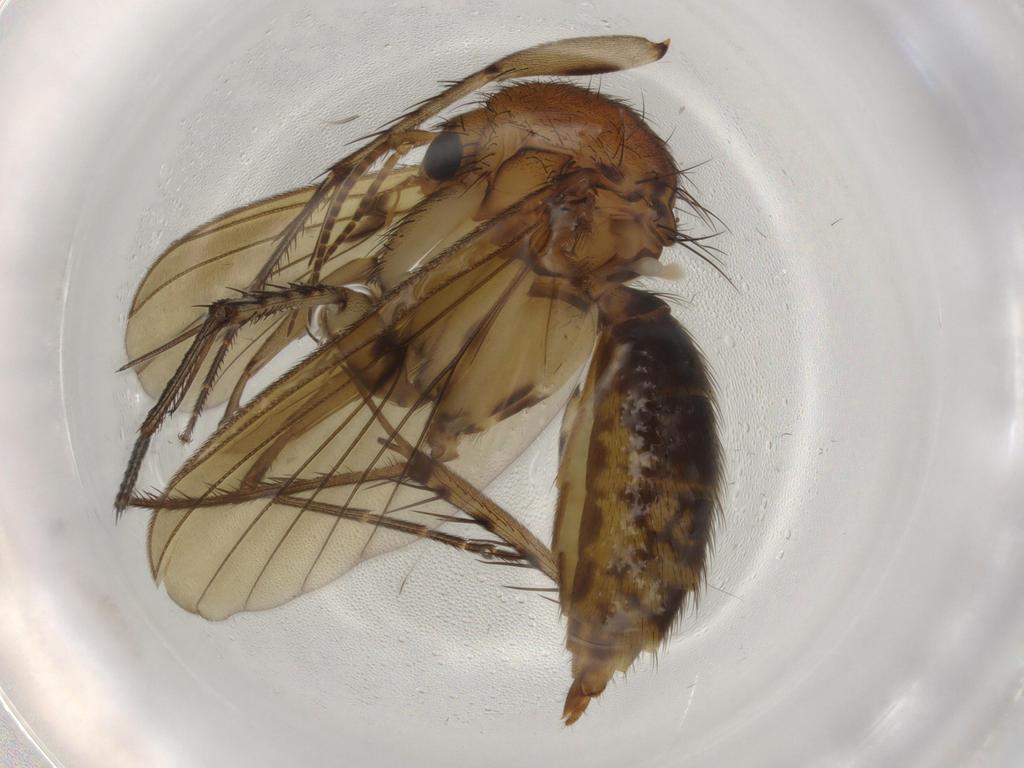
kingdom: Animalia
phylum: Arthropoda
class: Insecta
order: Diptera
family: Mycetophilidae
